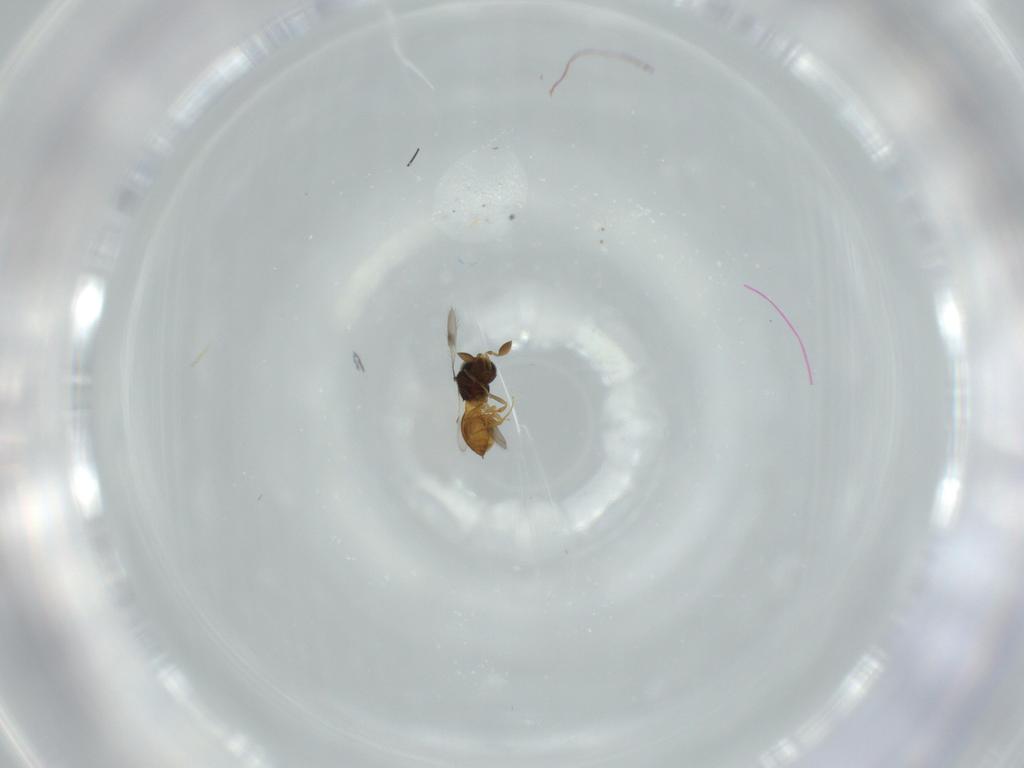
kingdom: Animalia
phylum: Arthropoda
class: Insecta
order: Hymenoptera
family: Scelionidae
